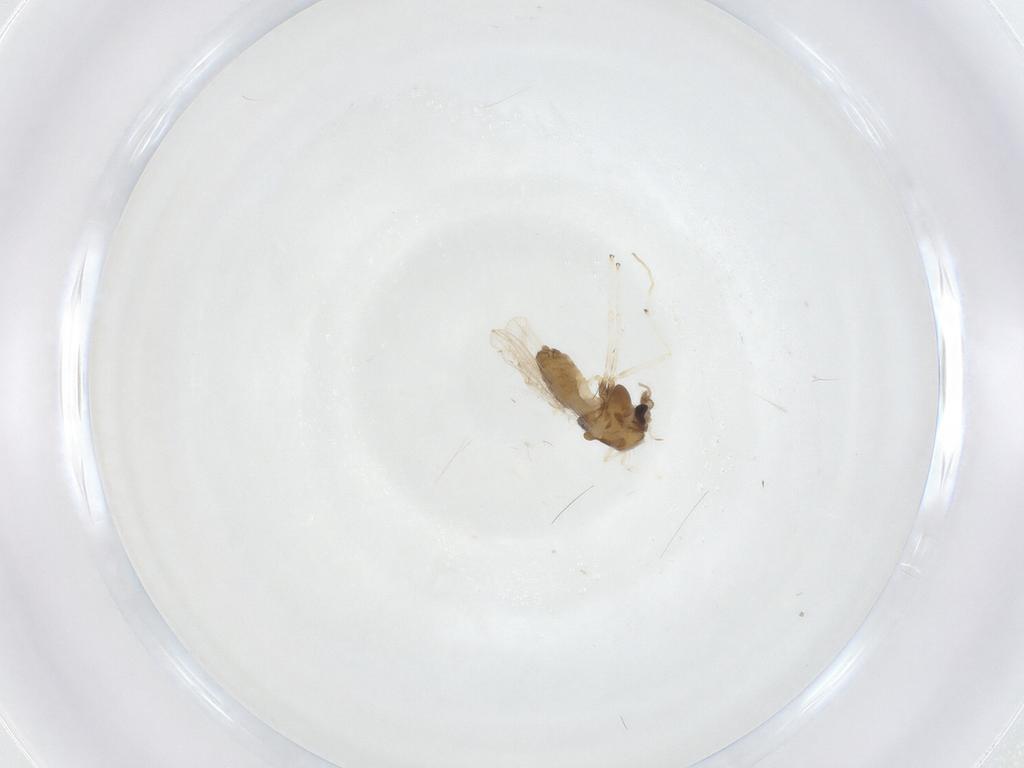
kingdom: Animalia
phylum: Arthropoda
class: Insecta
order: Diptera
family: Chironomidae
